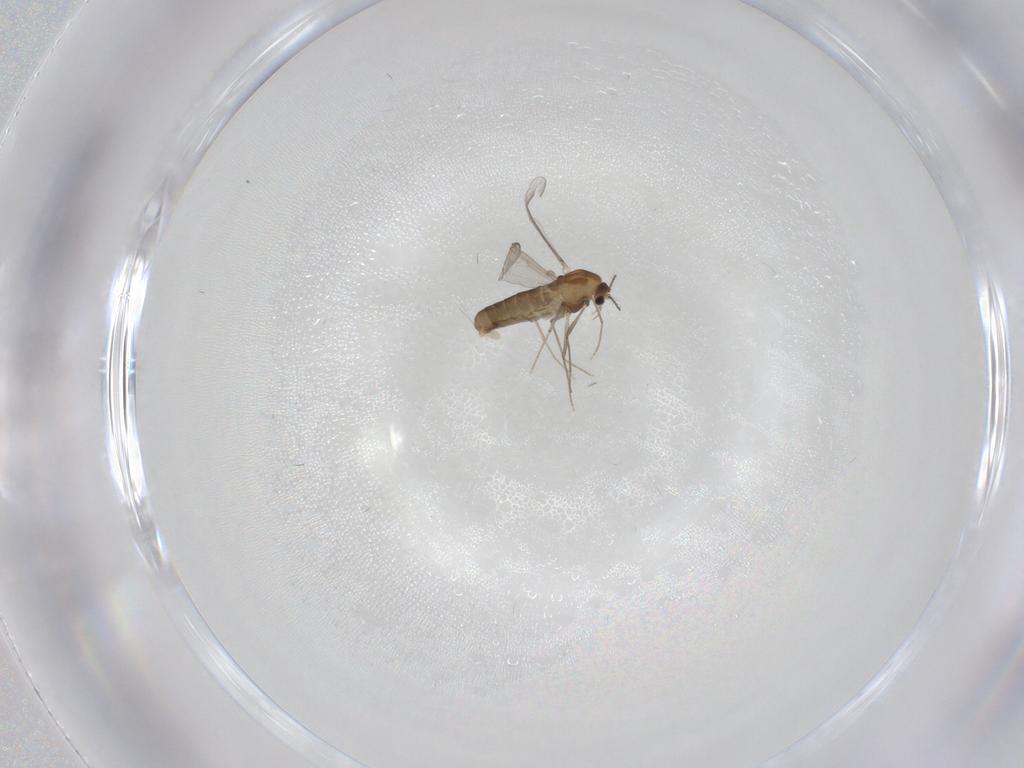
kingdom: Animalia
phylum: Arthropoda
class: Insecta
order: Diptera
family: Chironomidae
